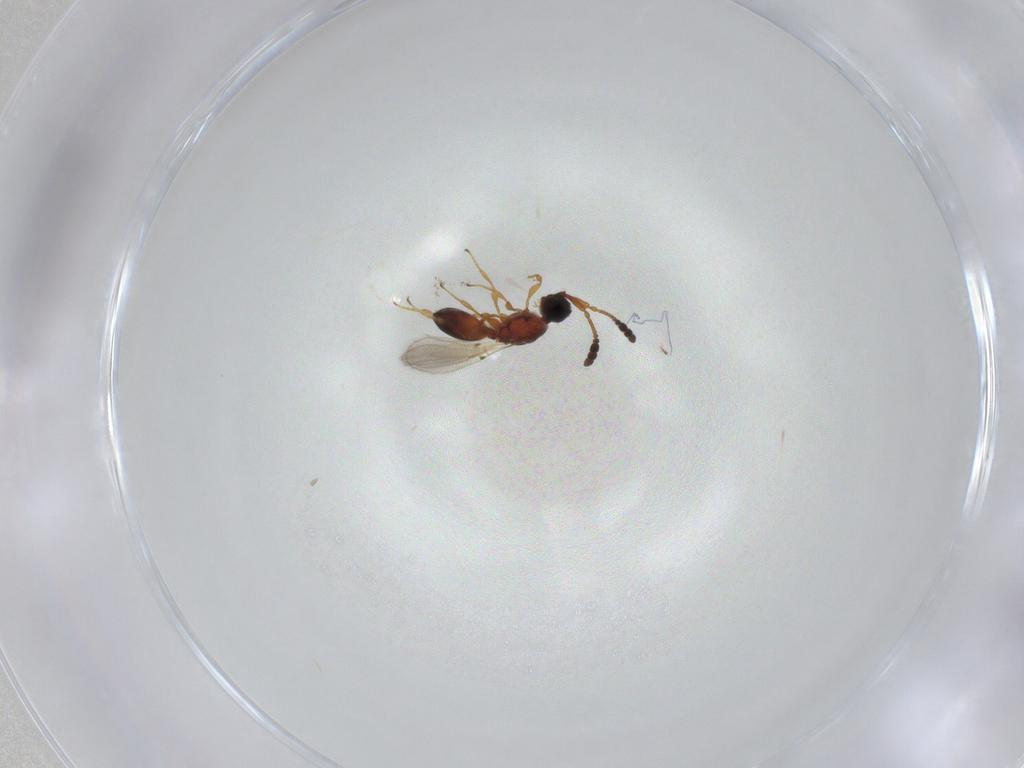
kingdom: Animalia
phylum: Arthropoda
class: Insecta
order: Hymenoptera
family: Diapriidae
